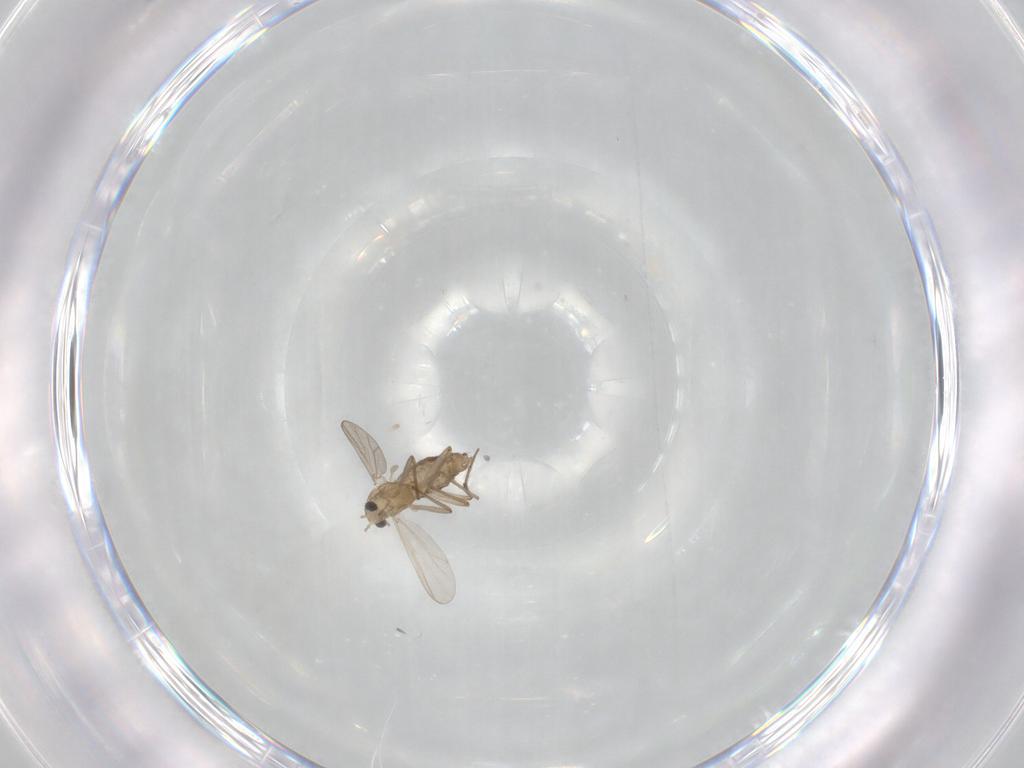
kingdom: Animalia
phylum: Arthropoda
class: Insecta
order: Diptera
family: Chironomidae
